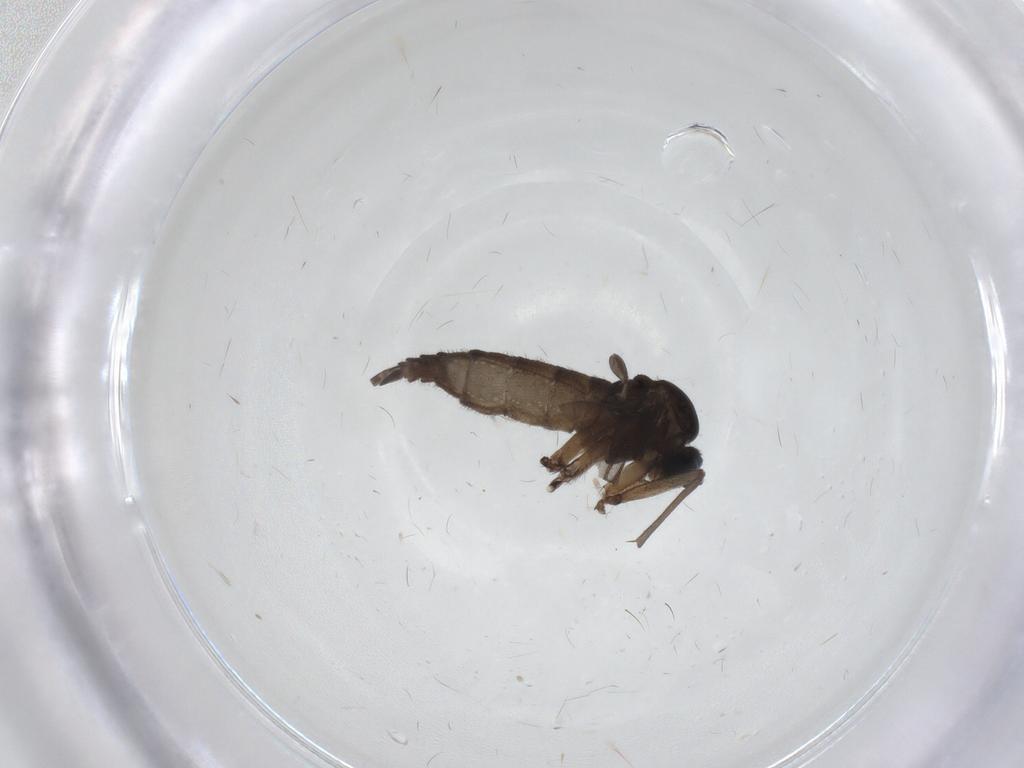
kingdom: Animalia
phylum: Arthropoda
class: Insecta
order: Diptera
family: Sciaridae
